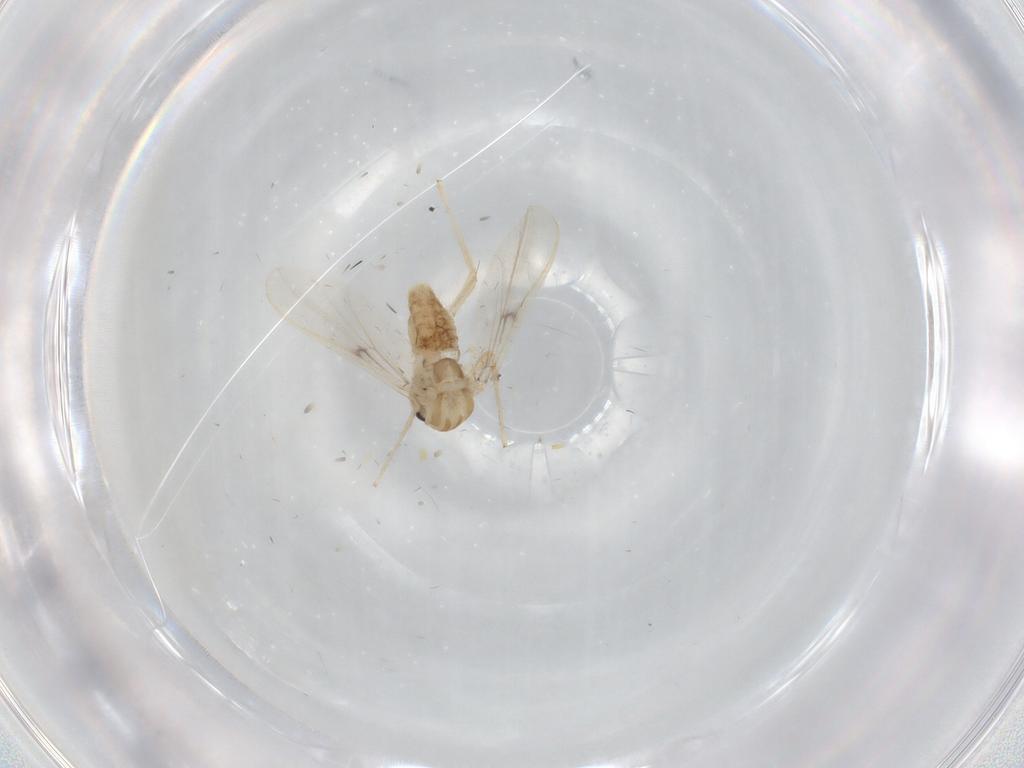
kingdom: Animalia
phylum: Arthropoda
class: Insecta
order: Diptera
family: Chironomidae
